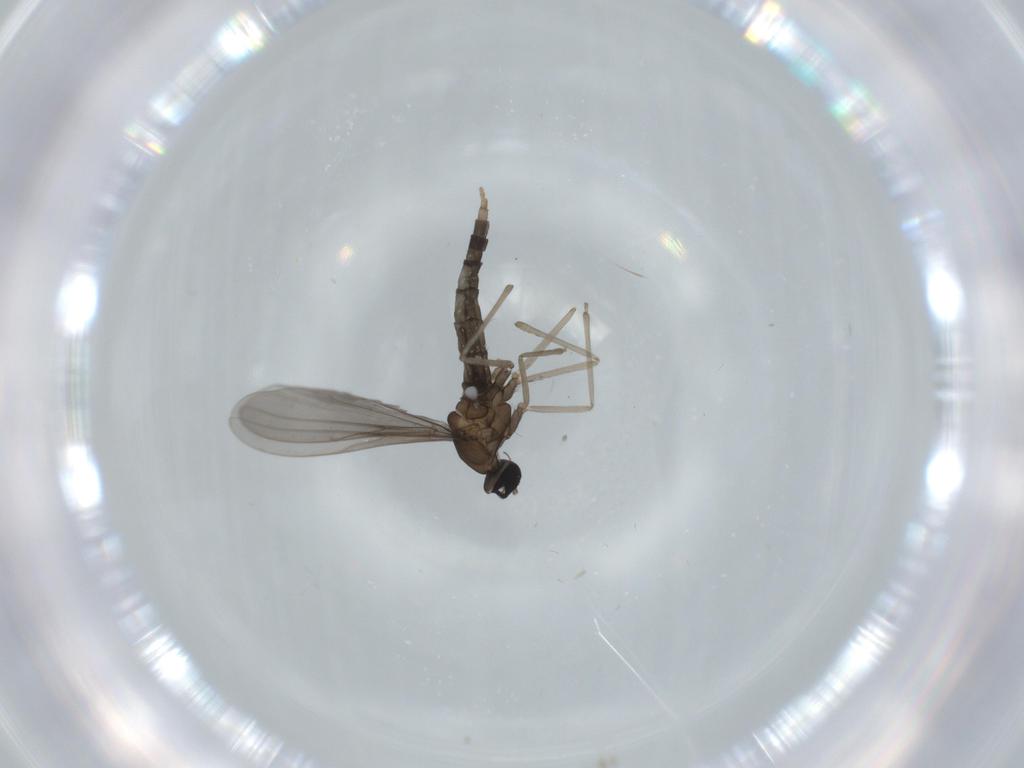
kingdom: Animalia
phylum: Arthropoda
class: Insecta
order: Diptera
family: Cecidomyiidae
